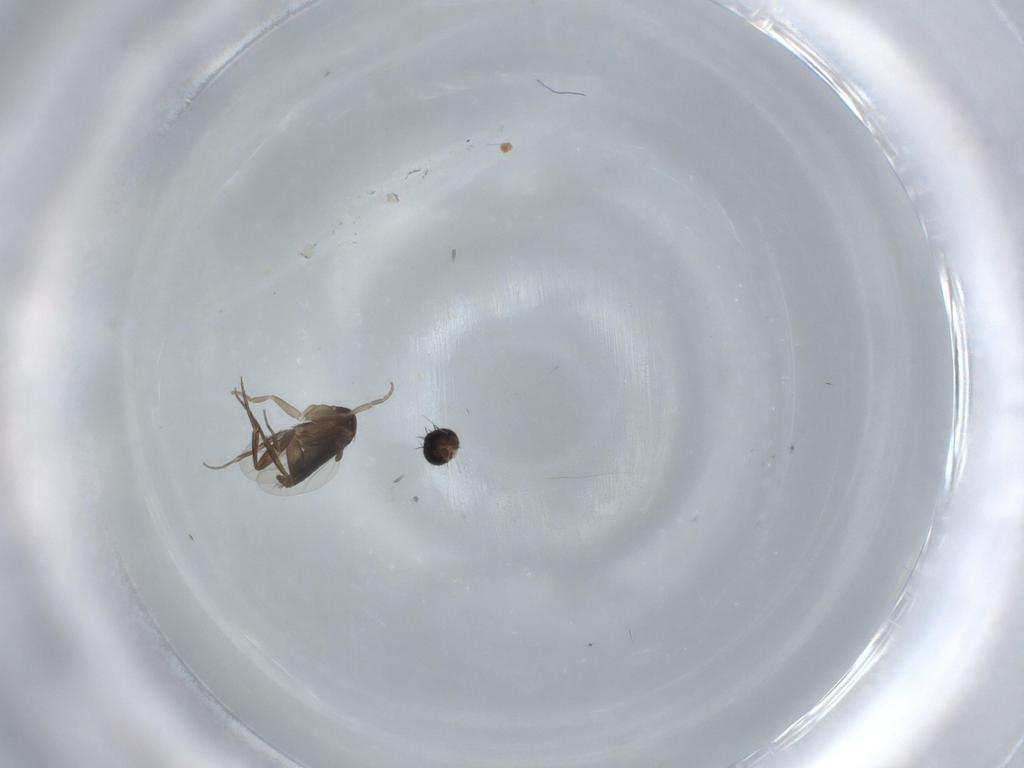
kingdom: Animalia
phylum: Arthropoda
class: Insecta
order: Diptera
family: Phoridae
